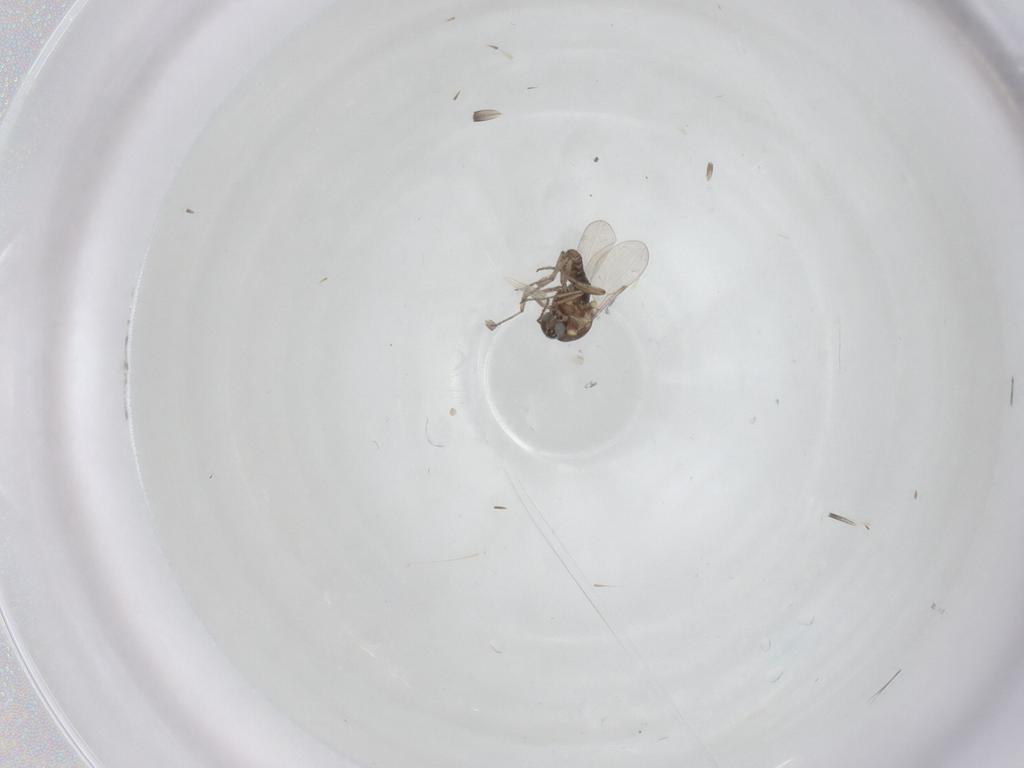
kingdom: Animalia
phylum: Arthropoda
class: Insecta
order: Diptera
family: Ceratopogonidae
